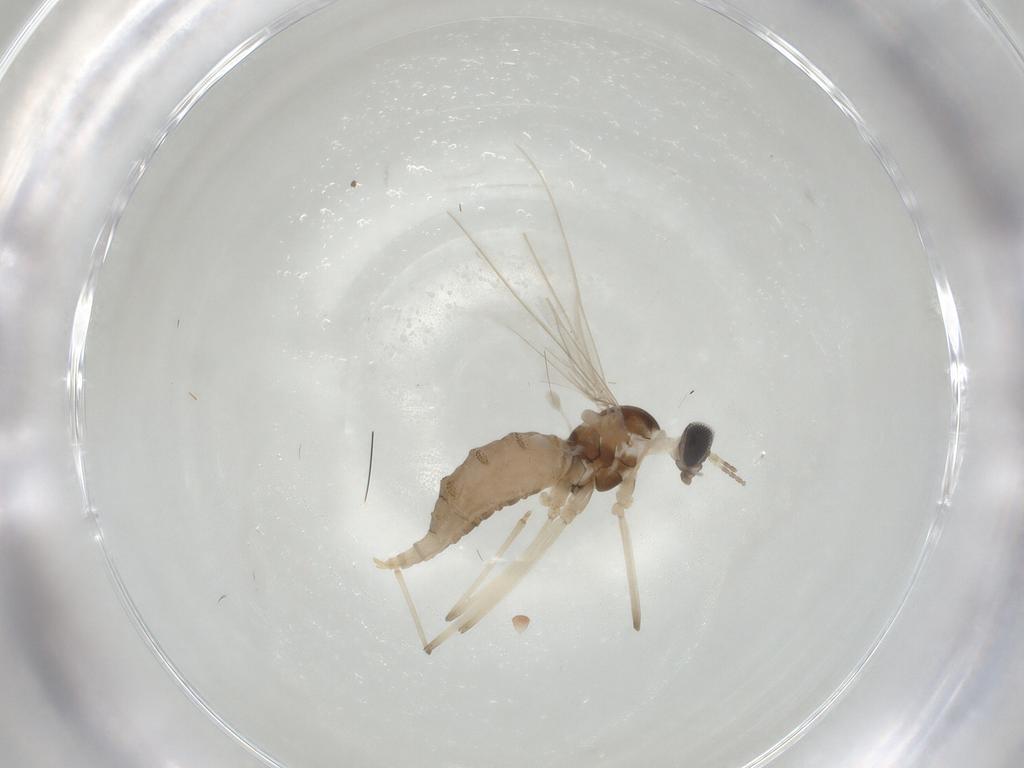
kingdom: Animalia
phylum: Arthropoda
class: Insecta
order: Diptera
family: Cecidomyiidae
